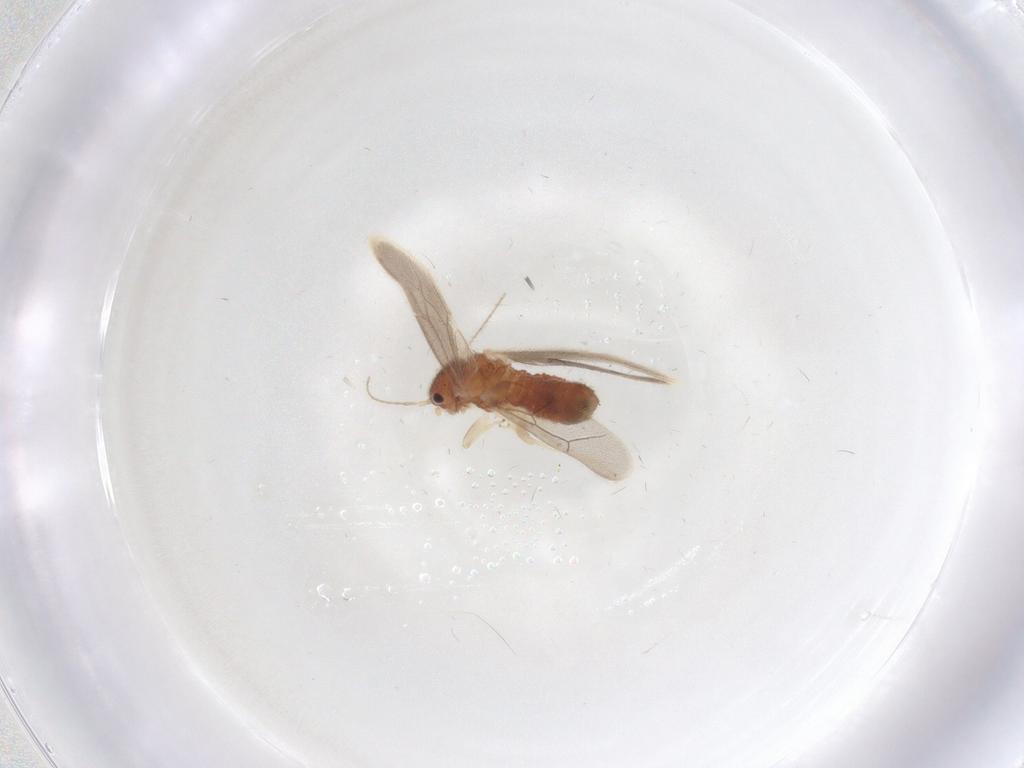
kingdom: Animalia
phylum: Arthropoda
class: Insecta
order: Psocodea
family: Archipsocidae
